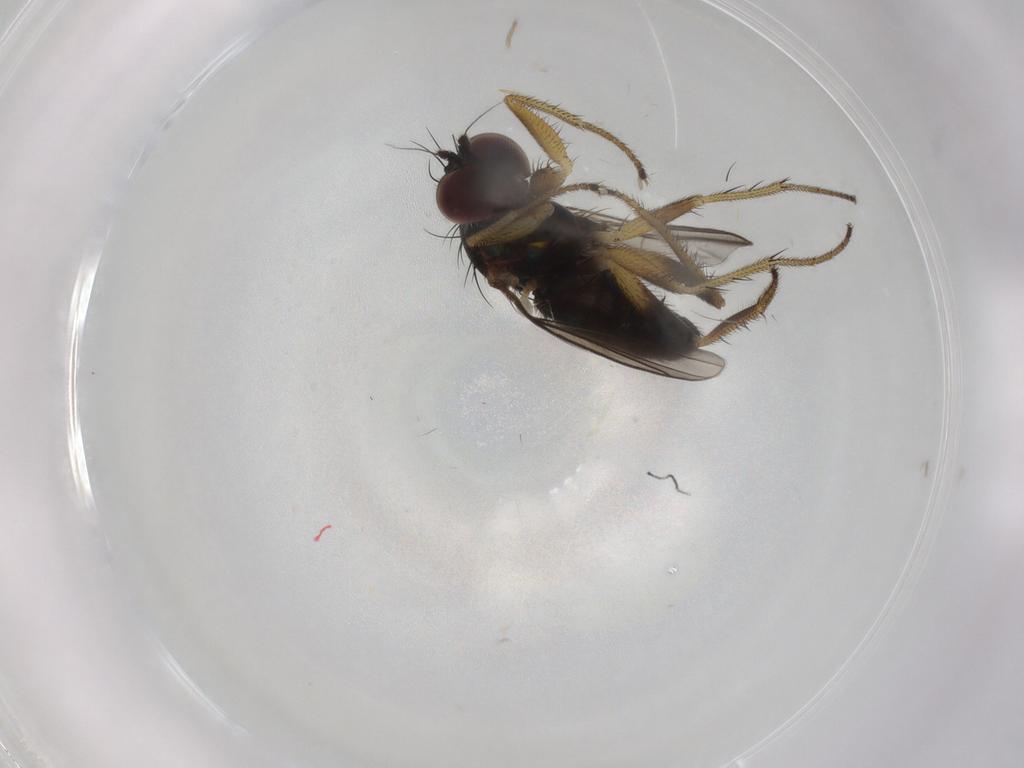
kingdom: Animalia
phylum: Arthropoda
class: Insecta
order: Diptera
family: Dolichopodidae
